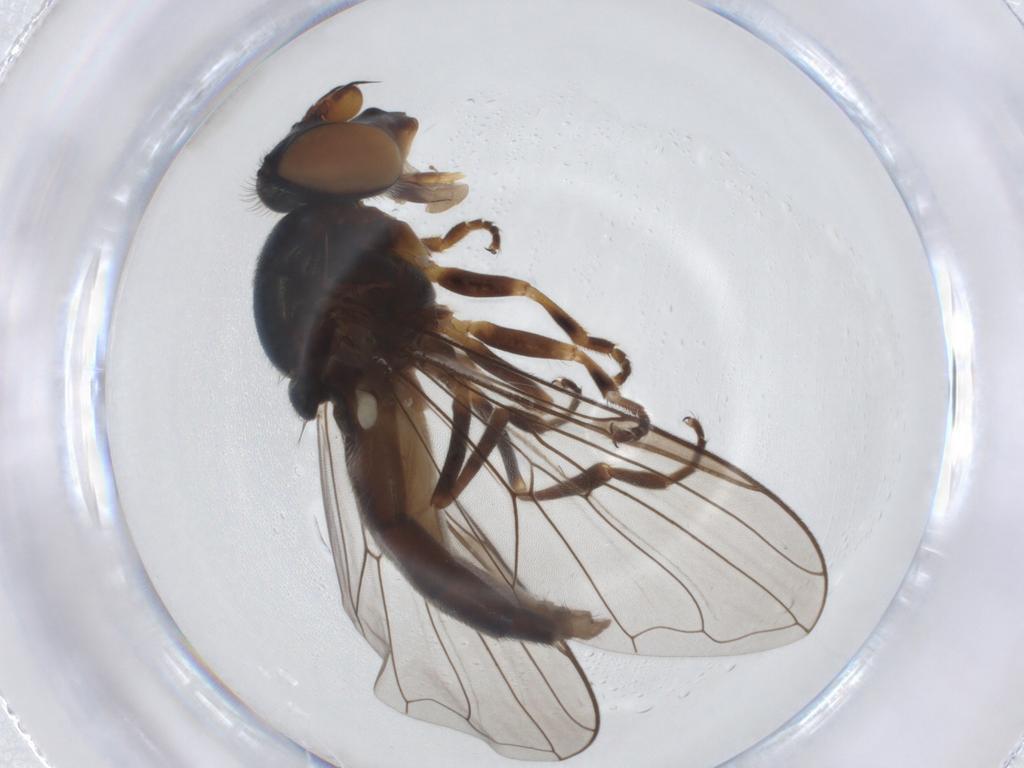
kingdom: Animalia
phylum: Arthropoda
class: Insecta
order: Diptera
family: Syrphidae
